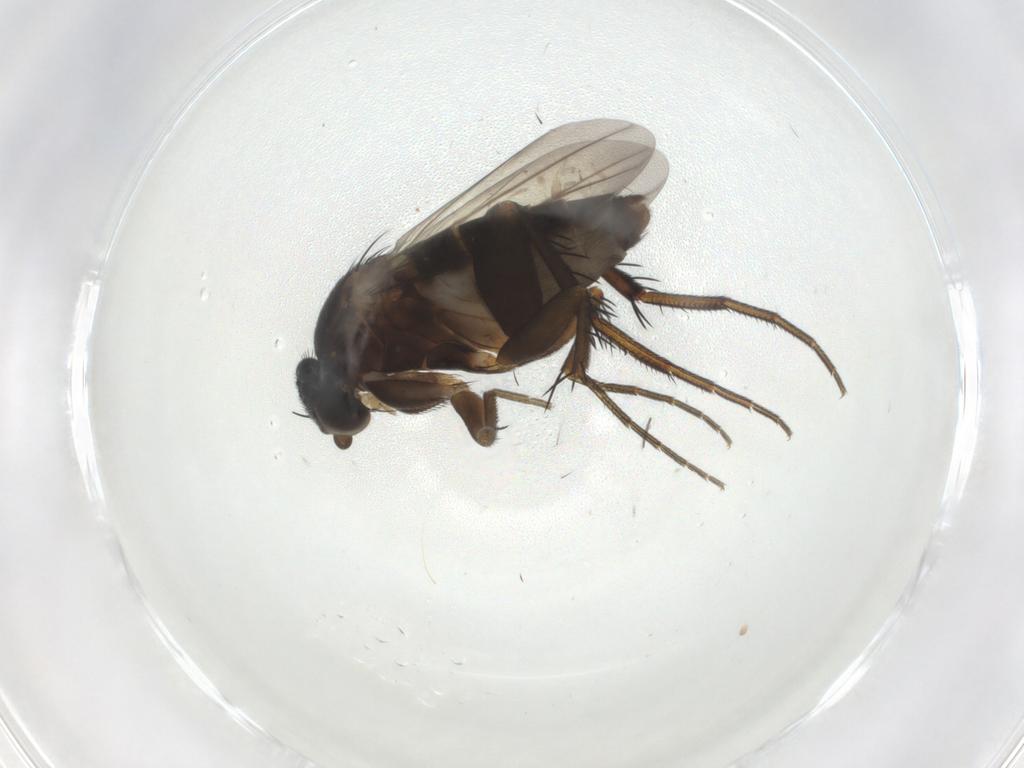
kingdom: Animalia
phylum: Arthropoda
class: Insecta
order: Diptera
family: Phoridae
